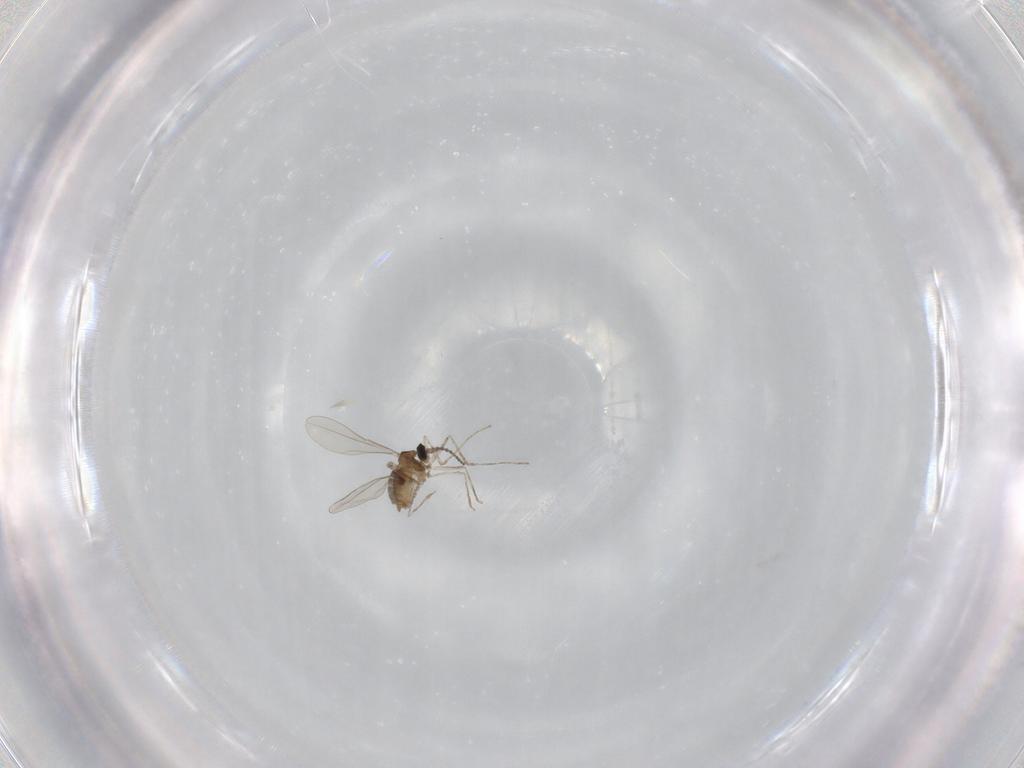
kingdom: Animalia
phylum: Arthropoda
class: Insecta
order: Diptera
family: Cecidomyiidae
